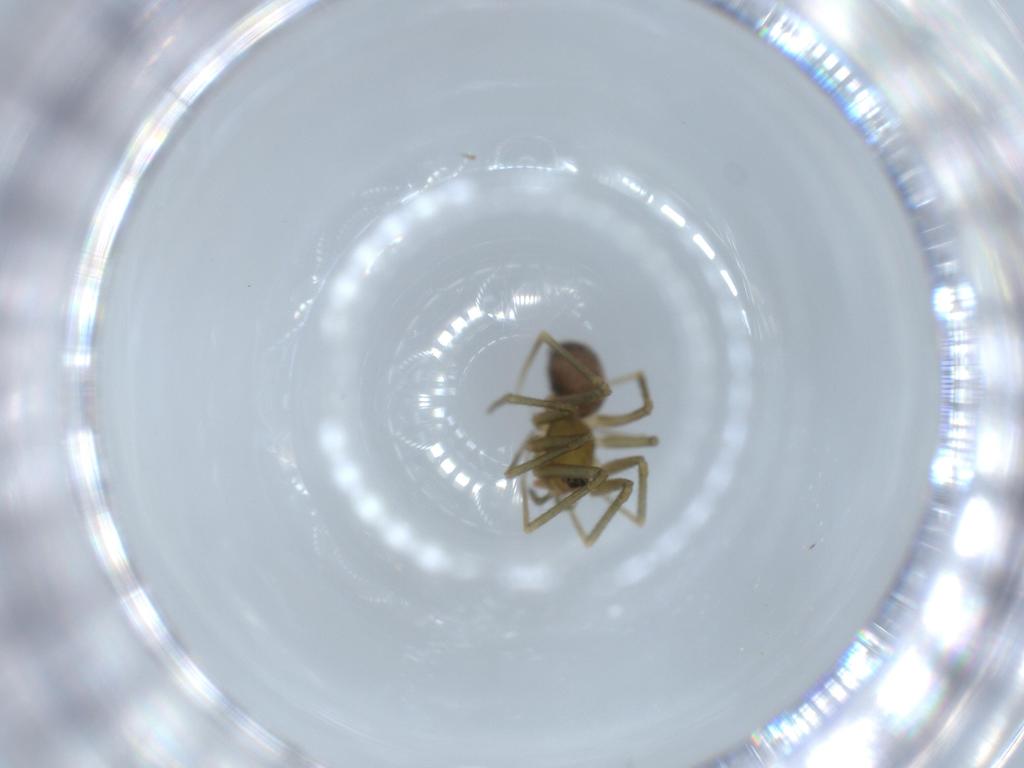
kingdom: Animalia
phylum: Arthropoda
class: Arachnida
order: Araneae
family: Linyphiidae
